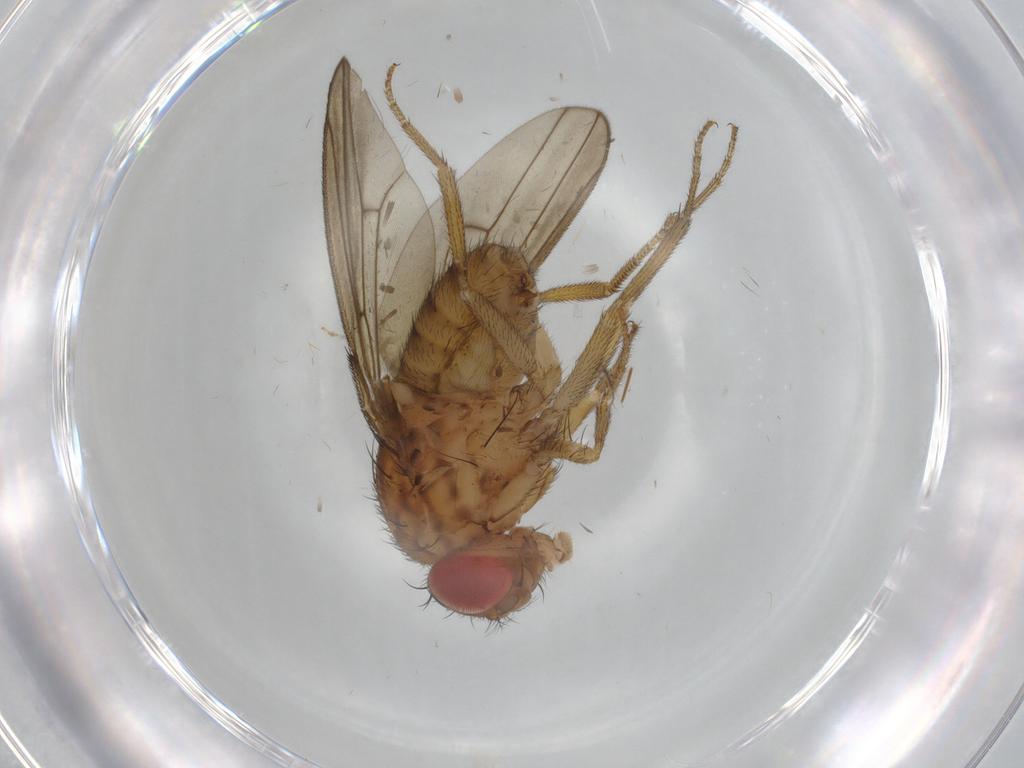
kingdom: Animalia
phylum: Arthropoda
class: Insecta
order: Diptera
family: Drosophilidae
